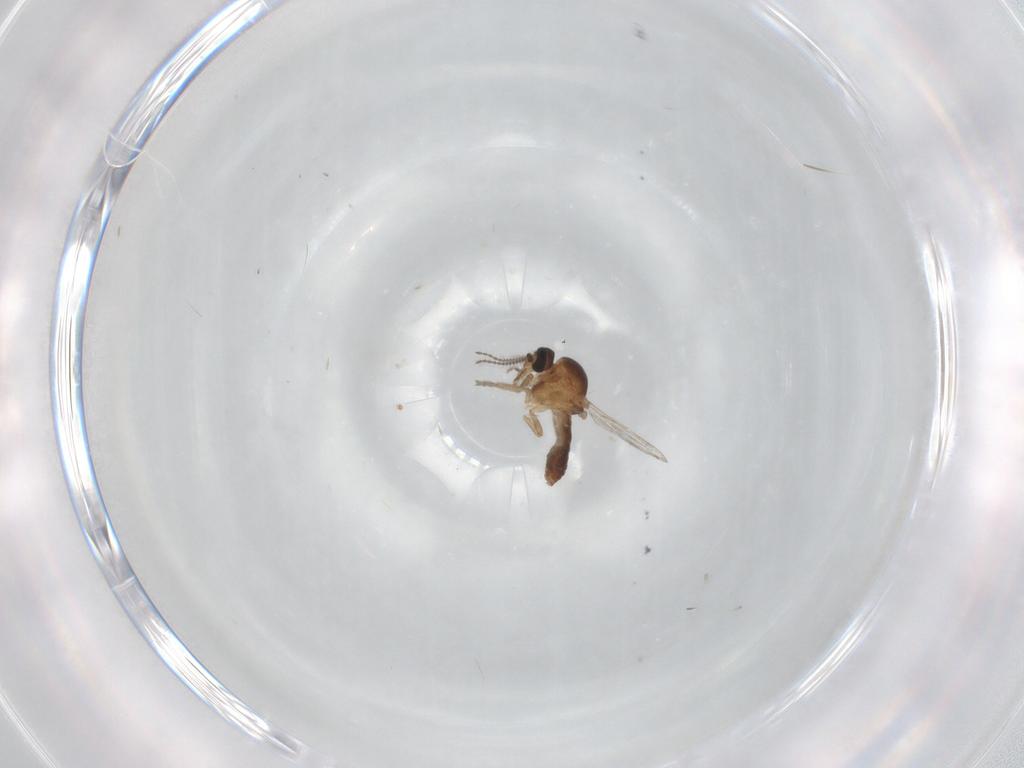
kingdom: Animalia
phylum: Arthropoda
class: Insecta
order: Diptera
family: Ceratopogonidae
